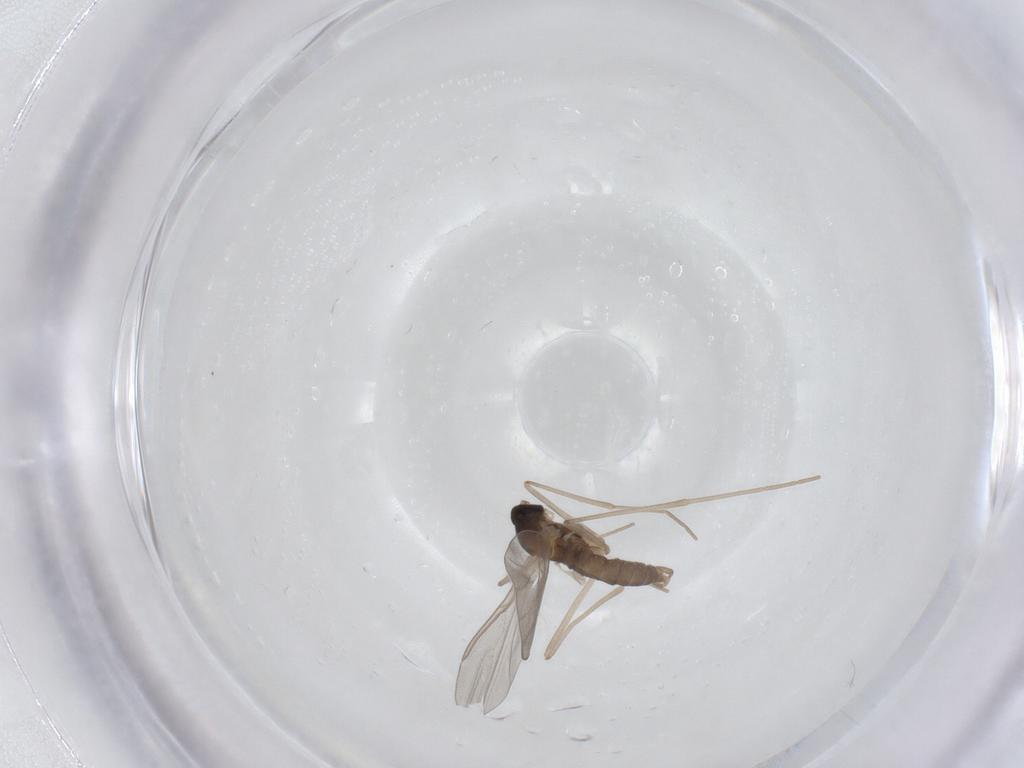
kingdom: Animalia
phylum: Arthropoda
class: Insecta
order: Diptera
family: Cecidomyiidae
